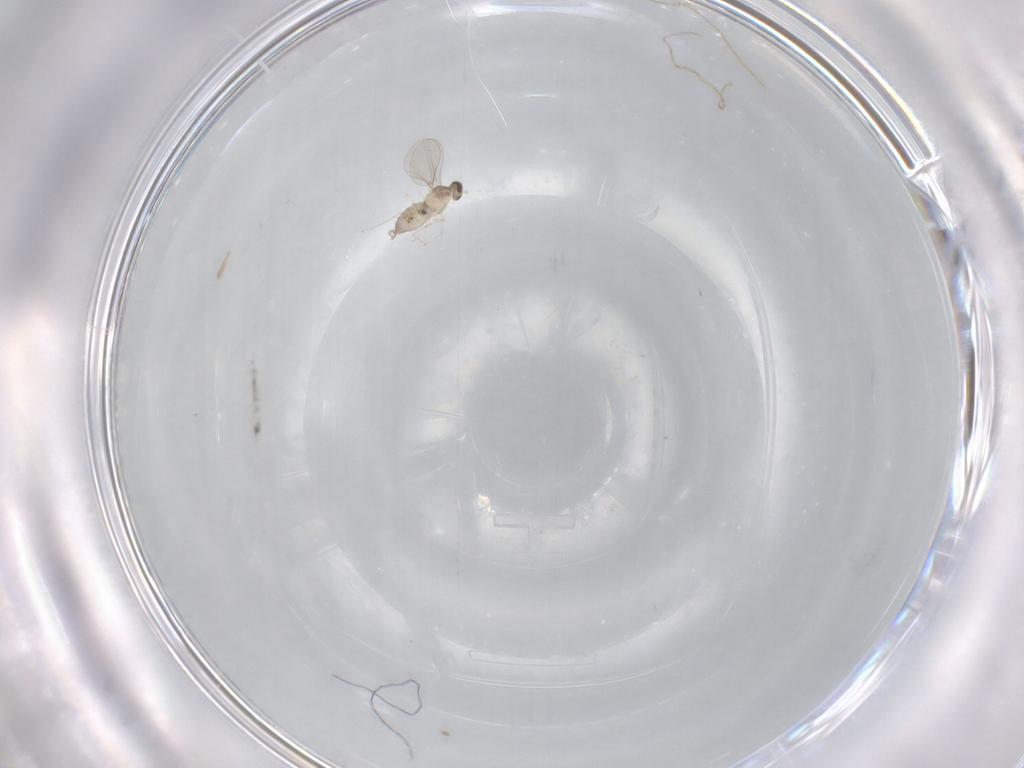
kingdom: Animalia
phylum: Arthropoda
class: Insecta
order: Diptera
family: Cecidomyiidae
